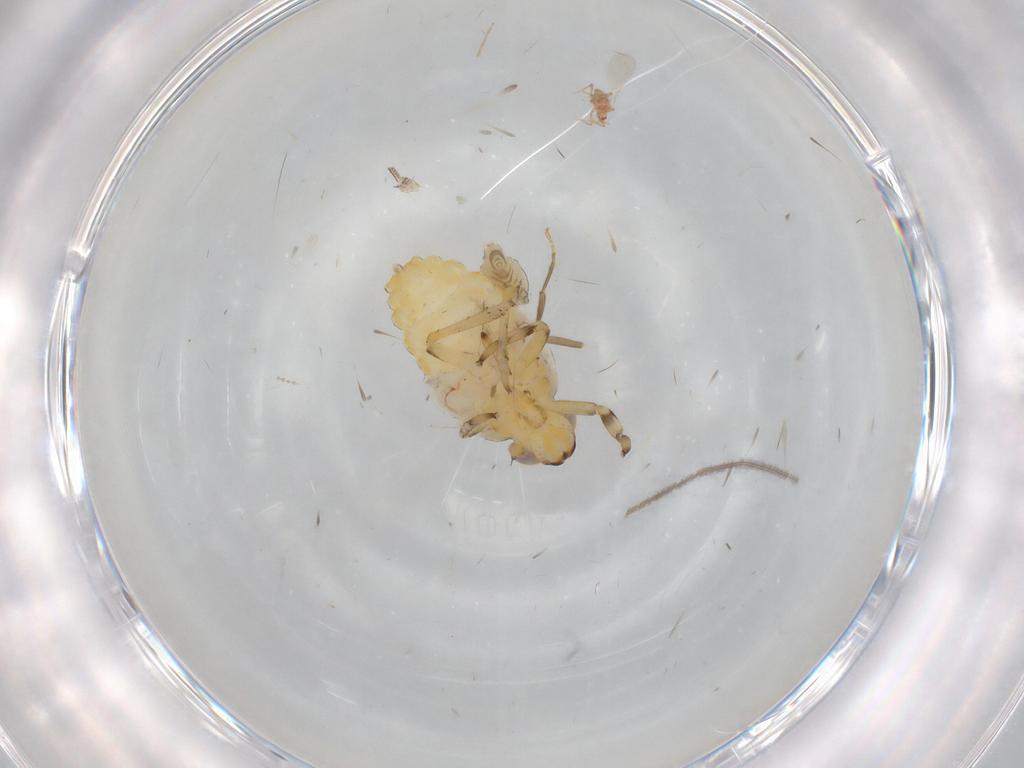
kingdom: Animalia
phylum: Arthropoda
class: Insecta
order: Hemiptera
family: Issidae
